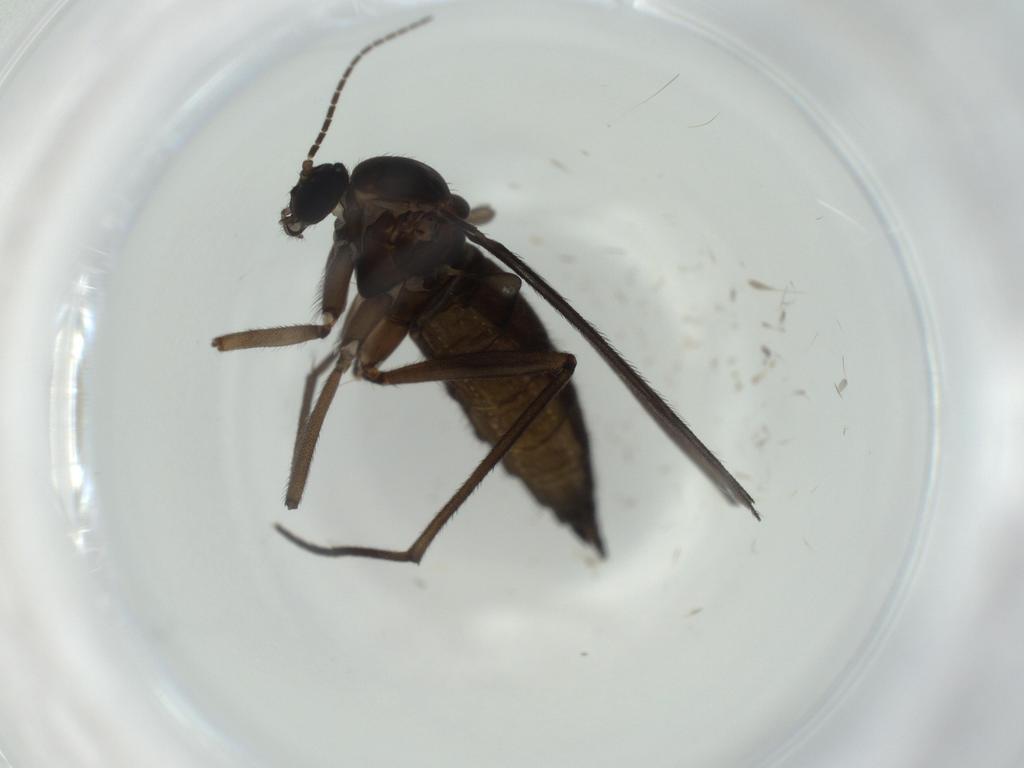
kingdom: Animalia
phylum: Arthropoda
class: Insecta
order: Diptera
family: Sciaridae
